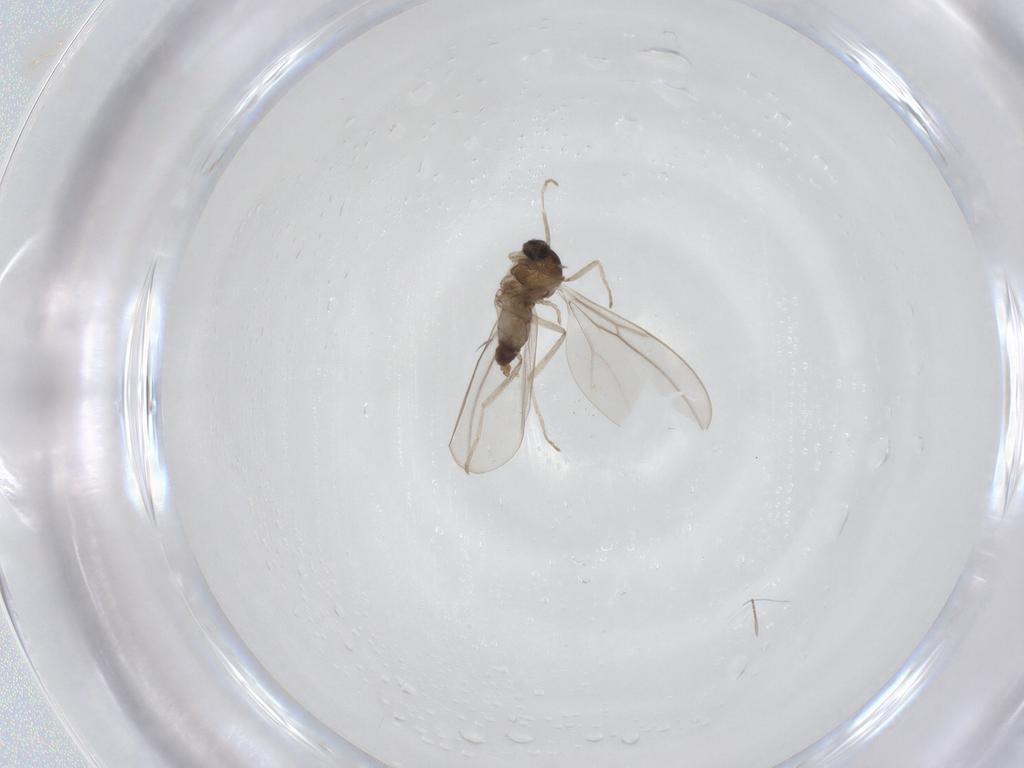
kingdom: Animalia
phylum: Arthropoda
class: Insecta
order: Diptera
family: Cecidomyiidae
